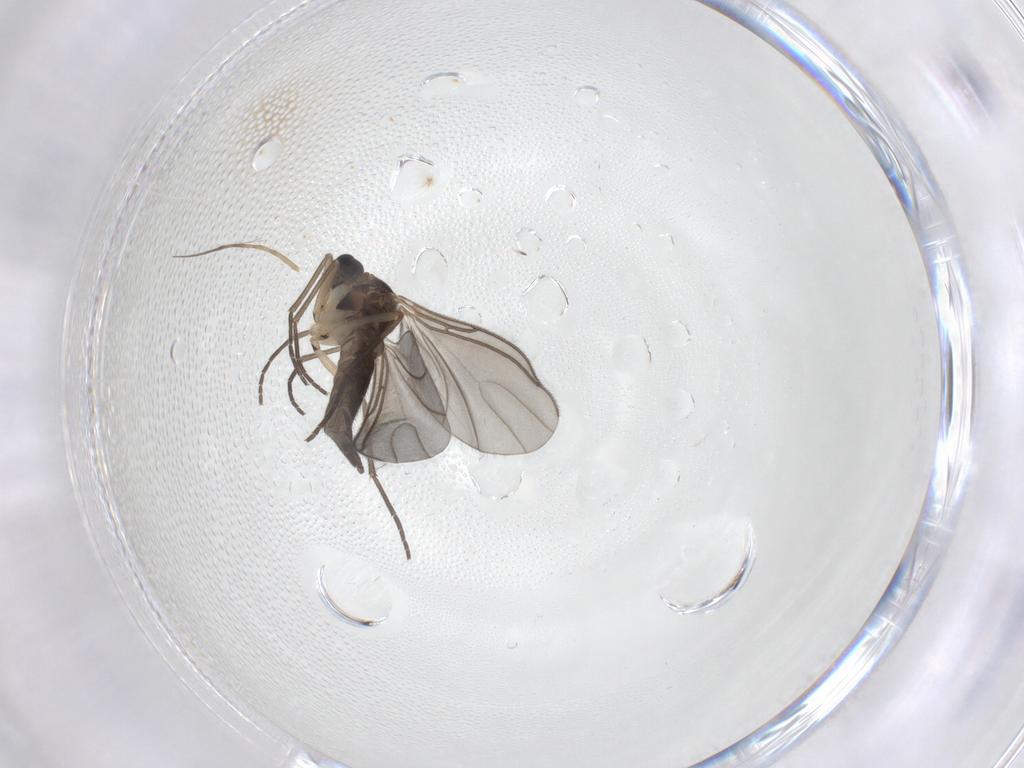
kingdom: Animalia
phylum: Arthropoda
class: Insecta
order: Diptera
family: Sciaridae
